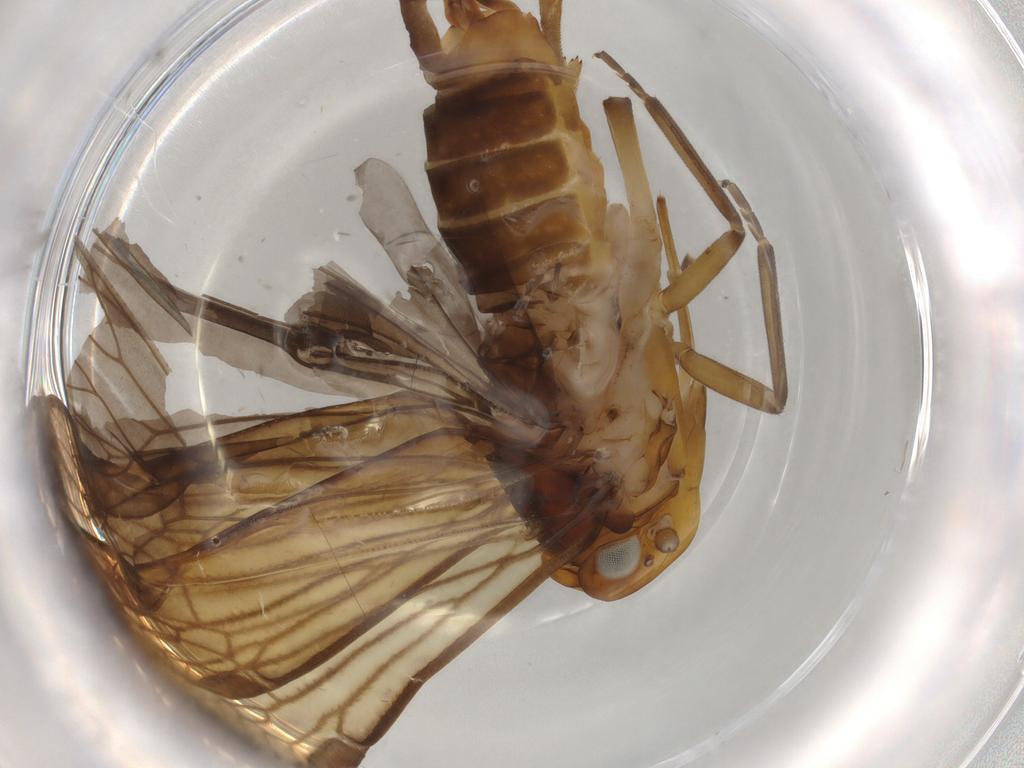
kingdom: Animalia
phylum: Arthropoda
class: Insecta
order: Hemiptera
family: Cixiidae
